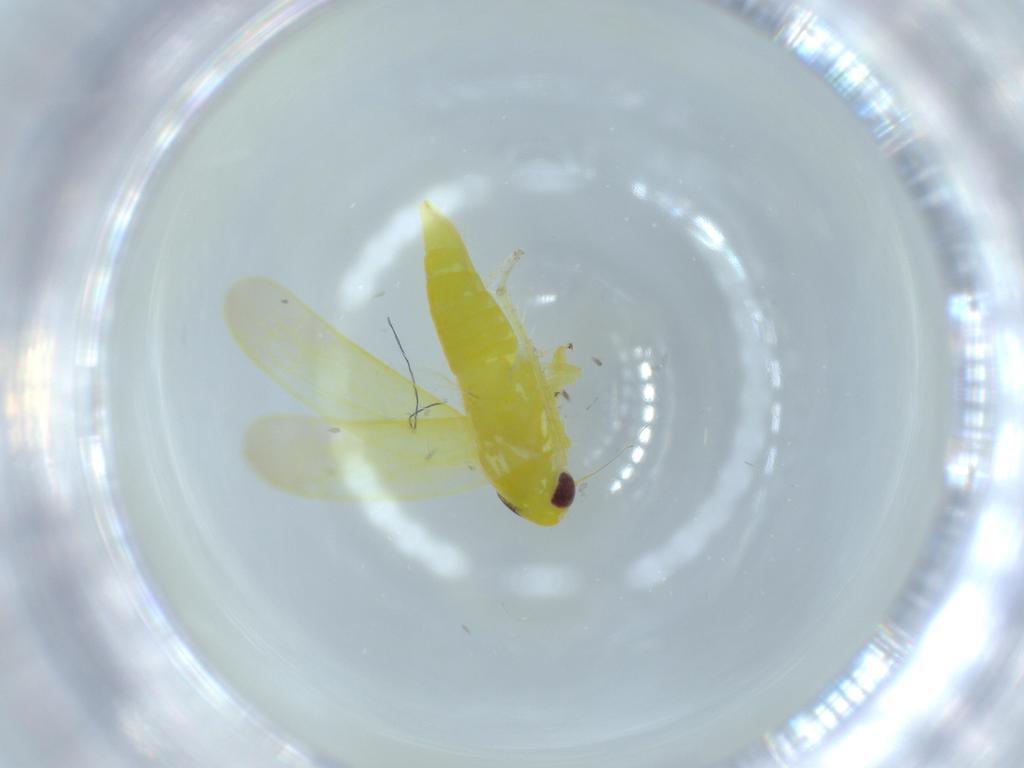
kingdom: Animalia
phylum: Arthropoda
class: Insecta
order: Hemiptera
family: Cicadellidae
